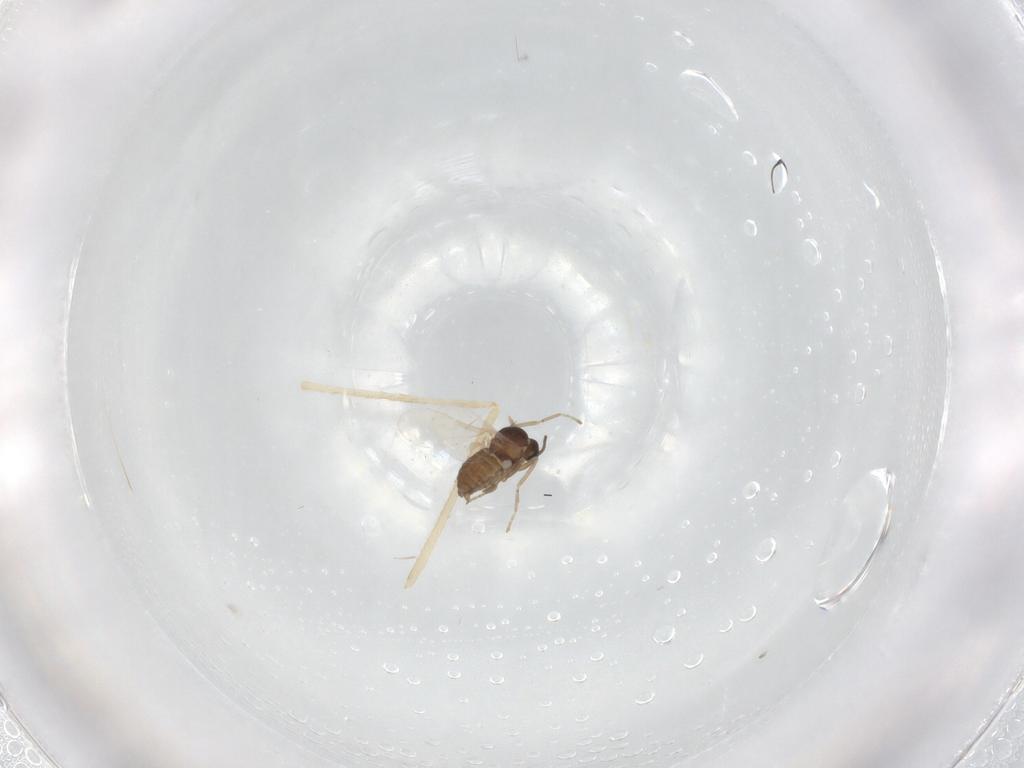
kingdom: Animalia
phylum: Arthropoda
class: Insecta
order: Diptera
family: Cecidomyiidae
